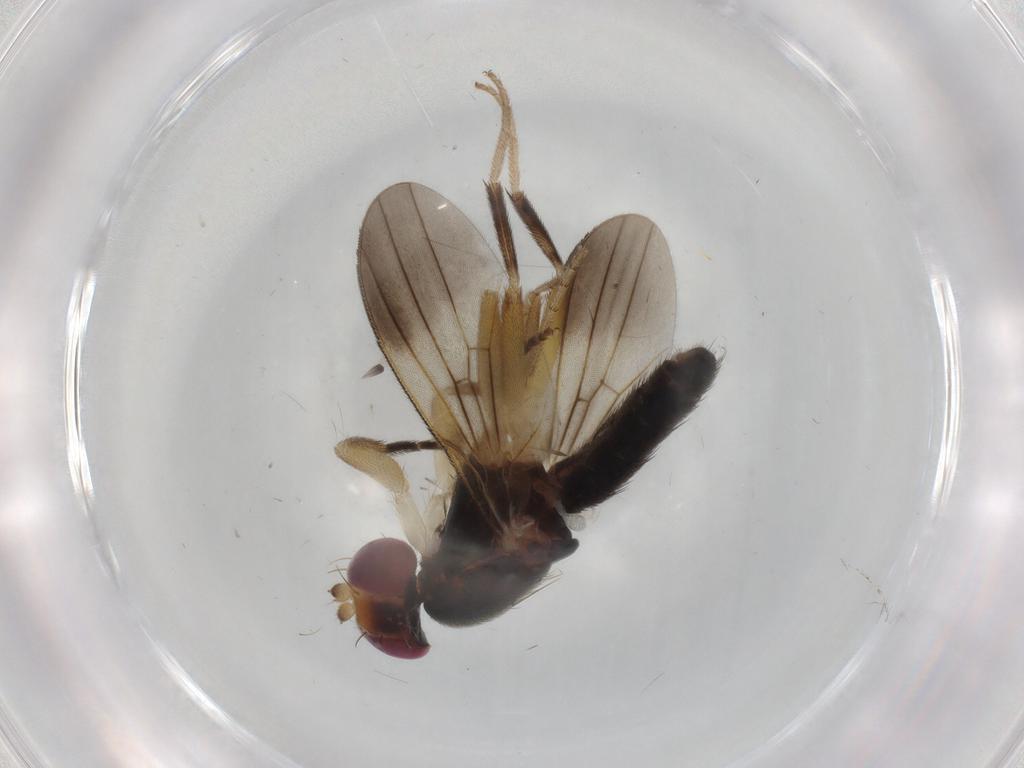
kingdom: Animalia
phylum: Arthropoda
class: Insecta
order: Diptera
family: Clusiidae
